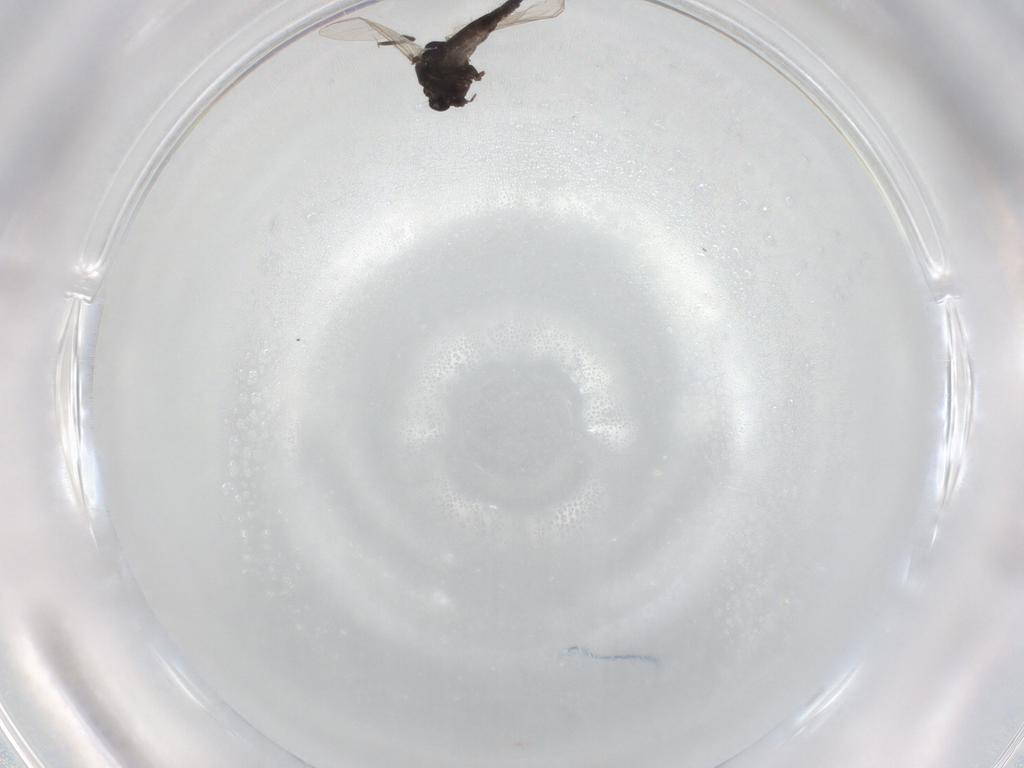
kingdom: Animalia
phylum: Arthropoda
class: Insecta
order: Diptera
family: Chironomidae
